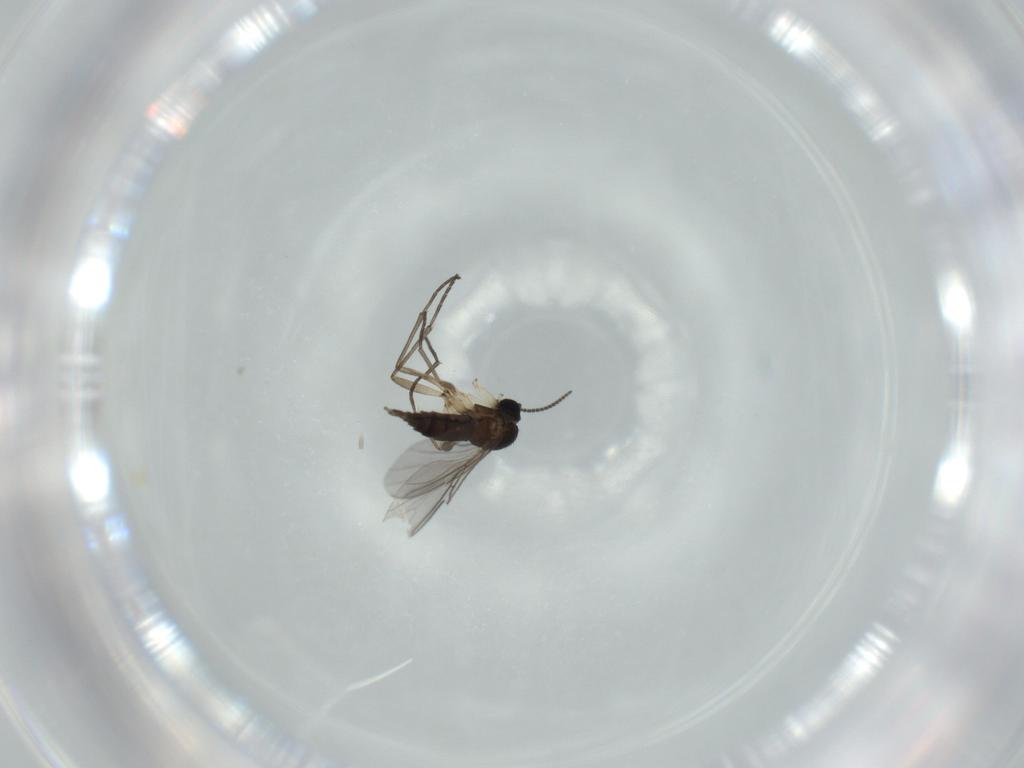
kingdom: Animalia
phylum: Arthropoda
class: Insecta
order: Diptera
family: Sciaridae
